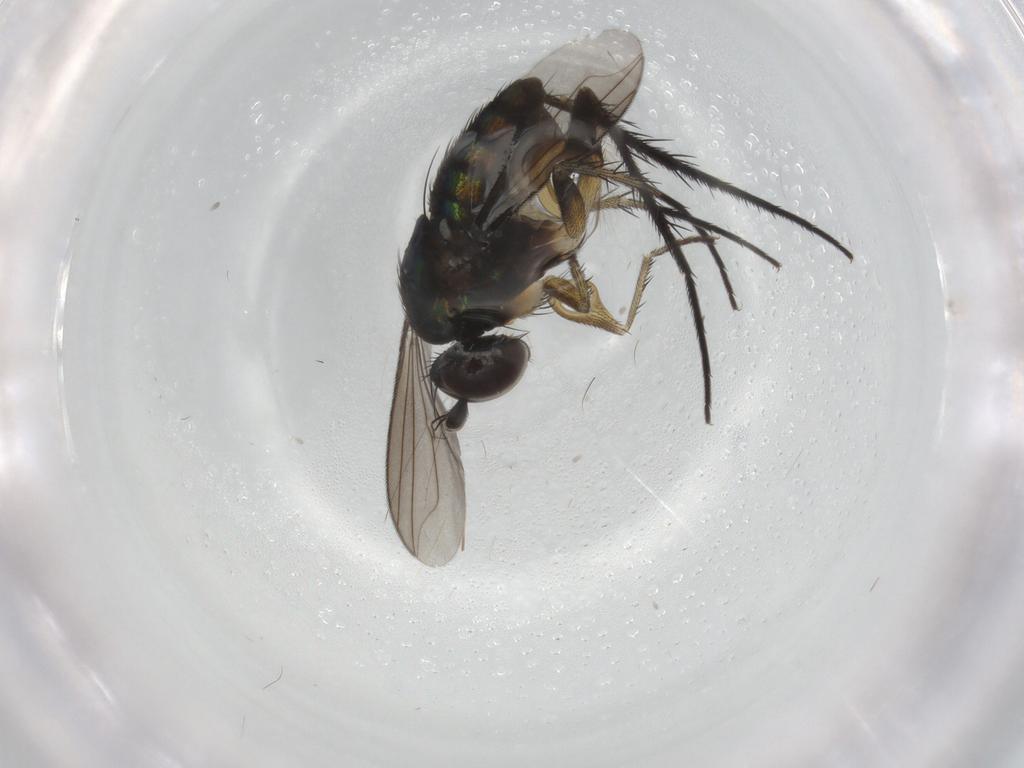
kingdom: Animalia
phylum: Arthropoda
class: Insecta
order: Diptera
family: Dolichopodidae
